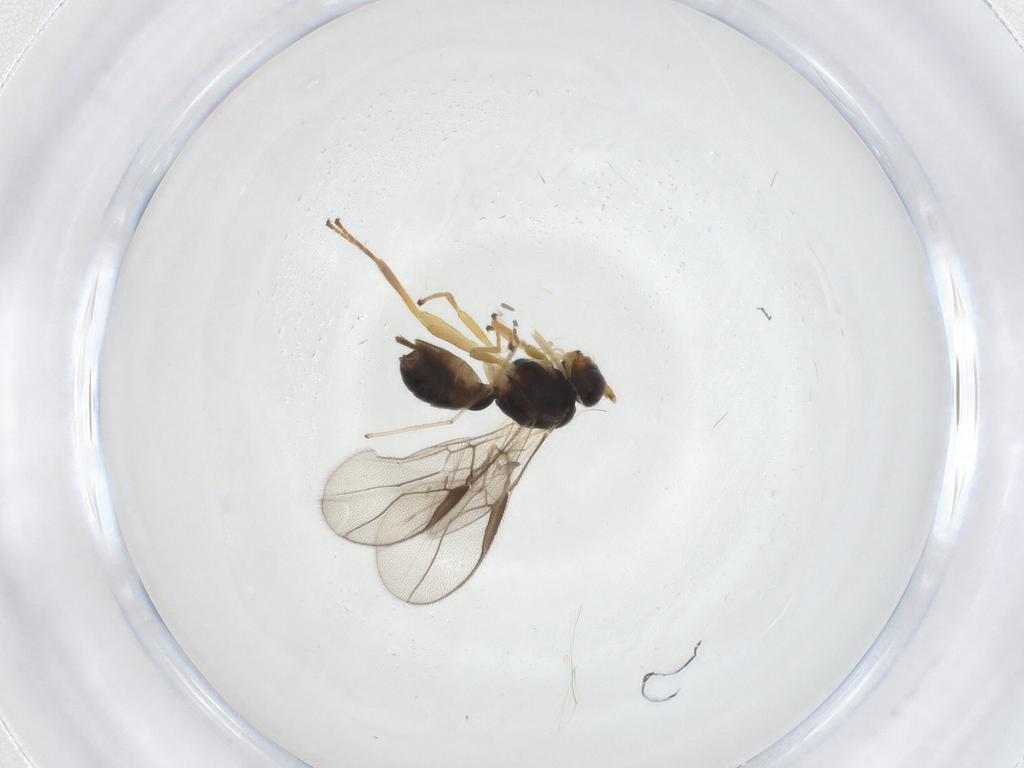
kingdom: Animalia
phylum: Arthropoda
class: Insecta
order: Hymenoptera
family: Braconidae
